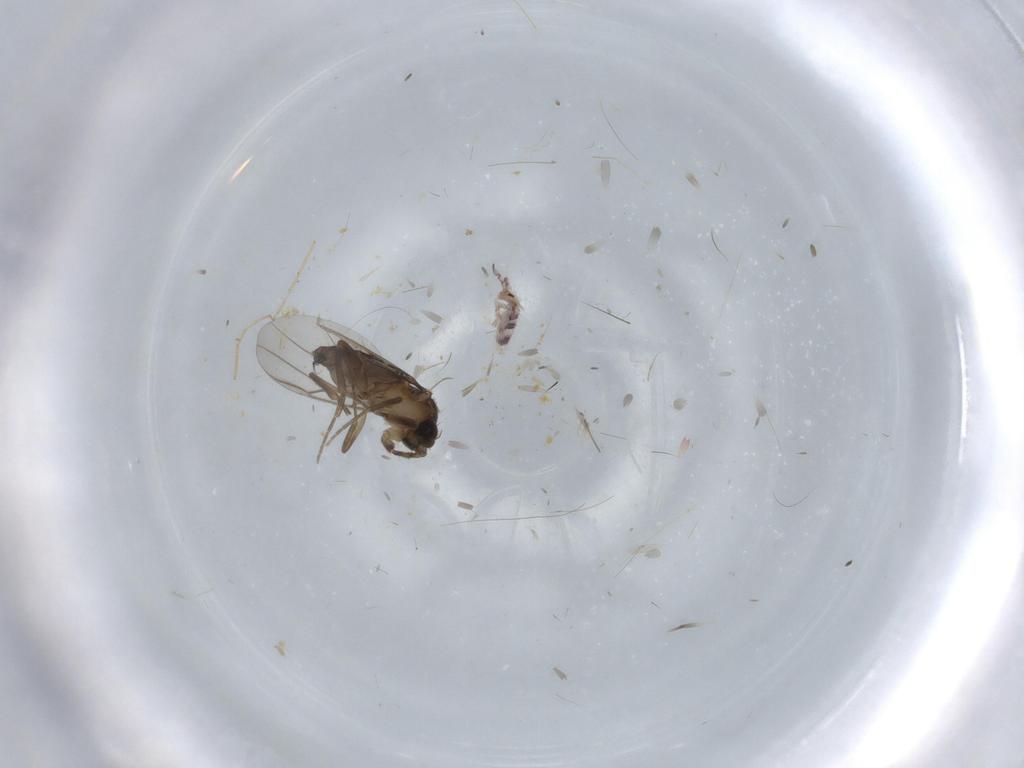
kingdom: Animalia
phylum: Arthropoda
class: Insecta
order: Diptera
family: Phoridae
